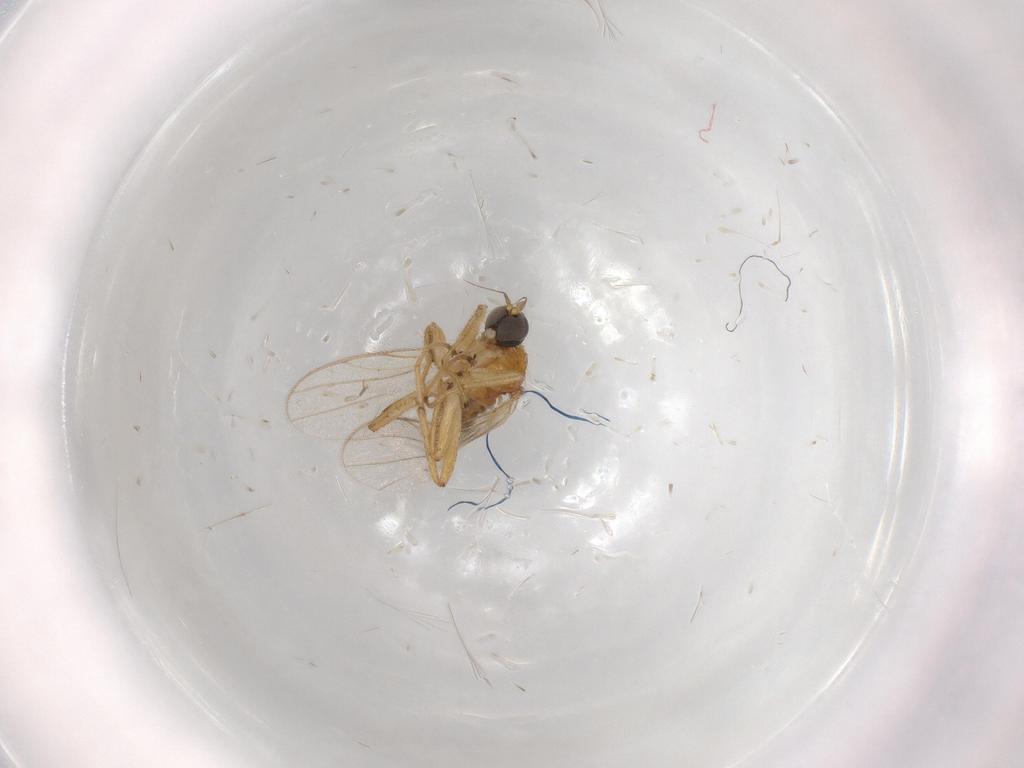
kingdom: Animalia
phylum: Arthropoda
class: Insecta
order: Diptera
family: Hybotidae
